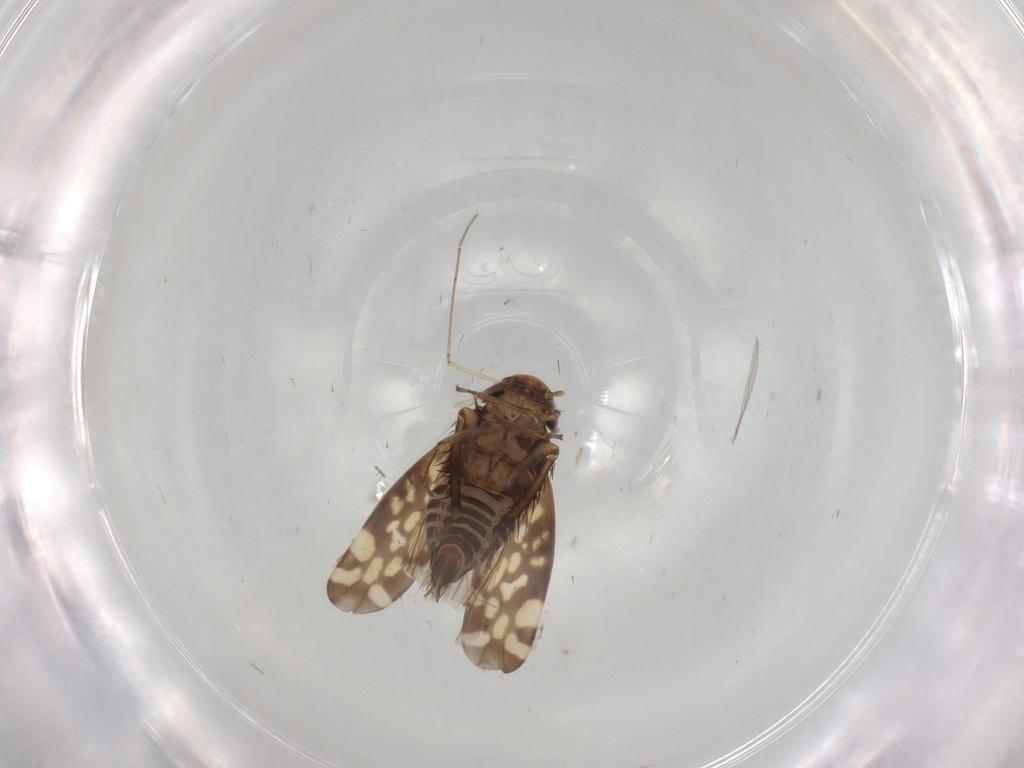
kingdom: Animalia
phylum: Arthropoda
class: Insecta
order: Hemiptera
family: Cicadellidae
